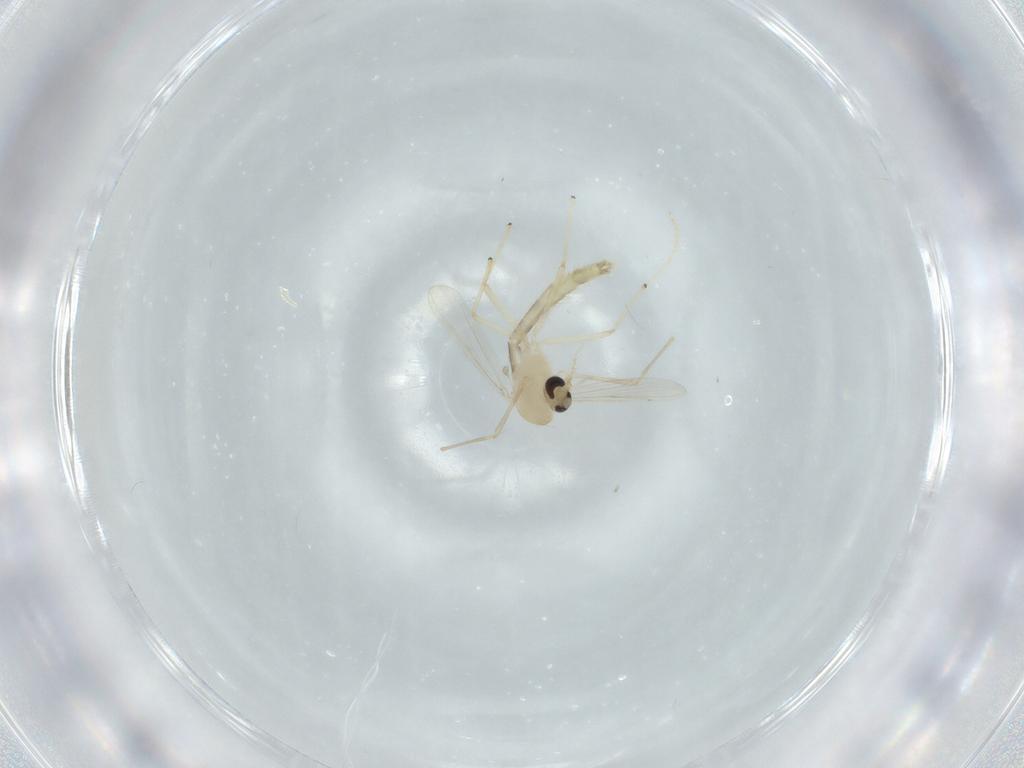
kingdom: Animalia
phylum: Arthropoda
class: Insecta
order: Diptera
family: Chironomidae
